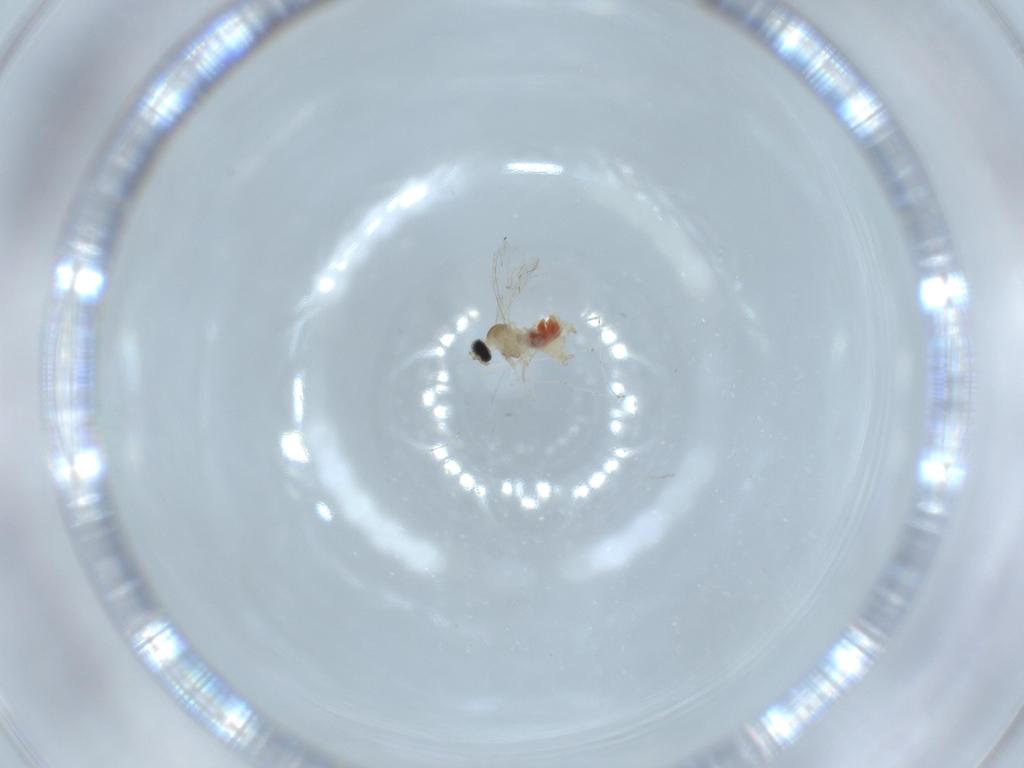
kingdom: Animalia
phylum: Arthropoda
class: Insecta
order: Diptera
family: Cecidomyiidae
